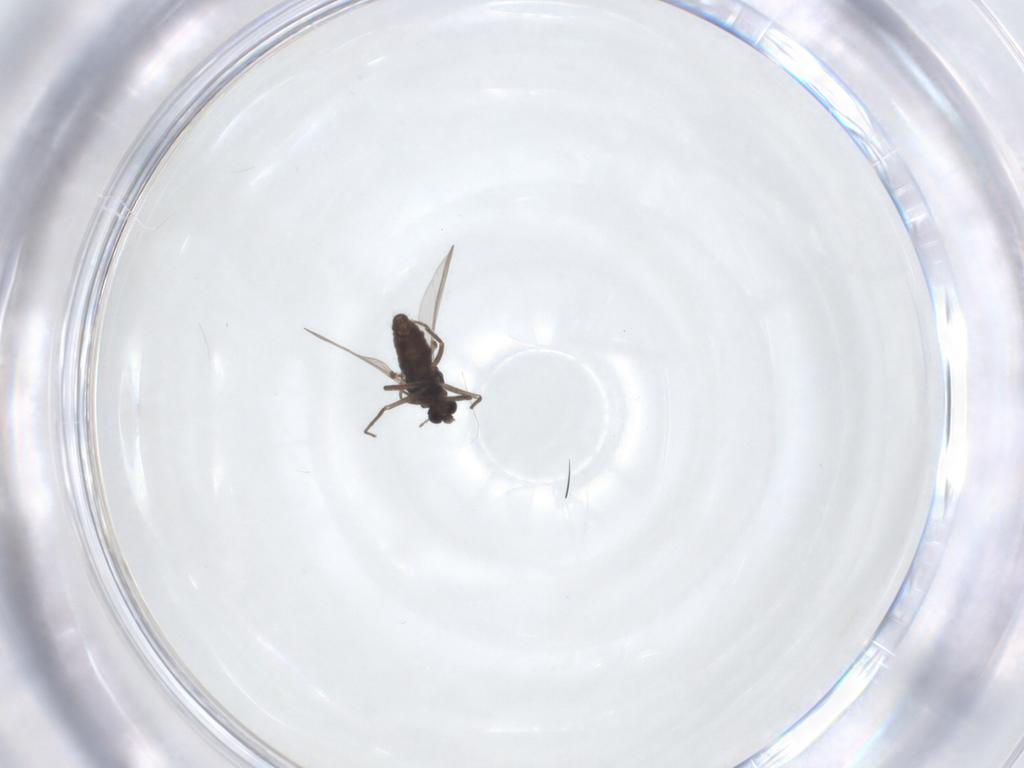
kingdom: Animalia
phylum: Arthropoda
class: Insecta
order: Diptera
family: Chironomidae
